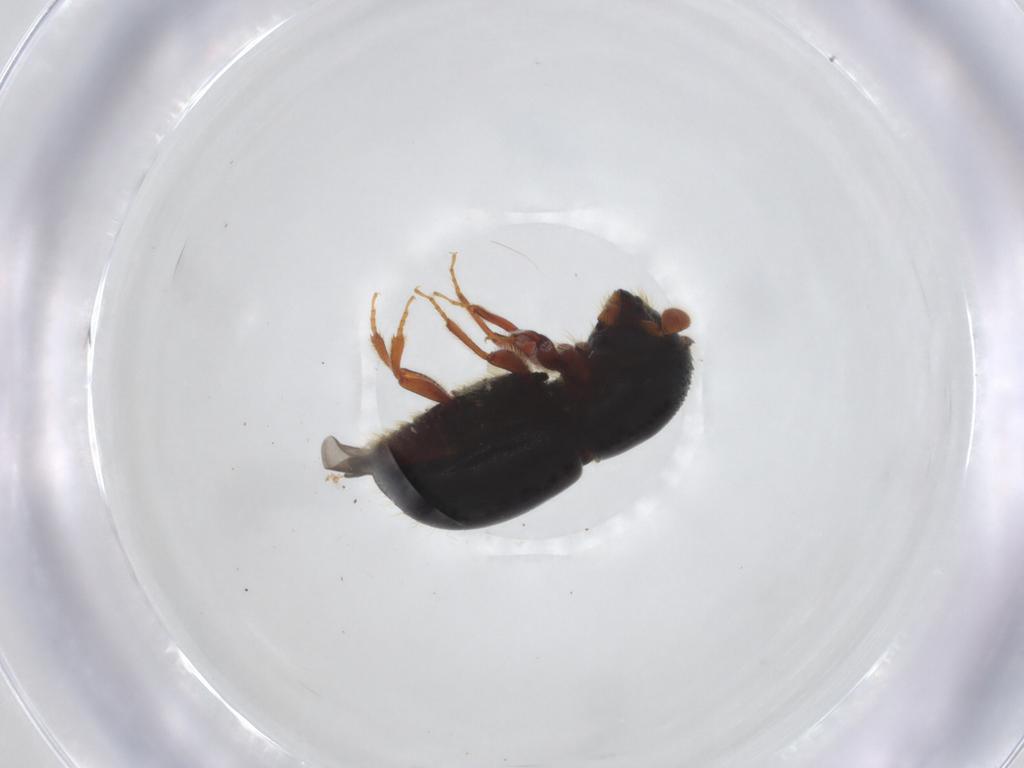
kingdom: Animalia
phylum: Arthropoda
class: Insecta
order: Coleoptera
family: Curculionidae
